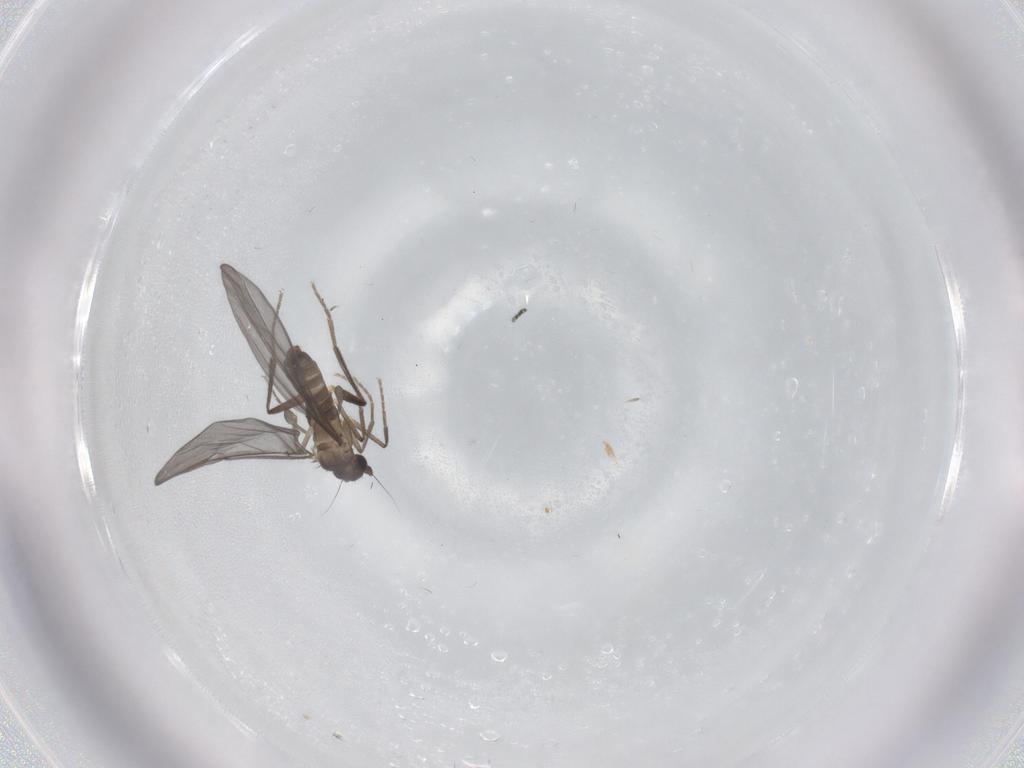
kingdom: Animalia
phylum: Arthropoda
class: Insecta
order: Diptera
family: Phoridae
